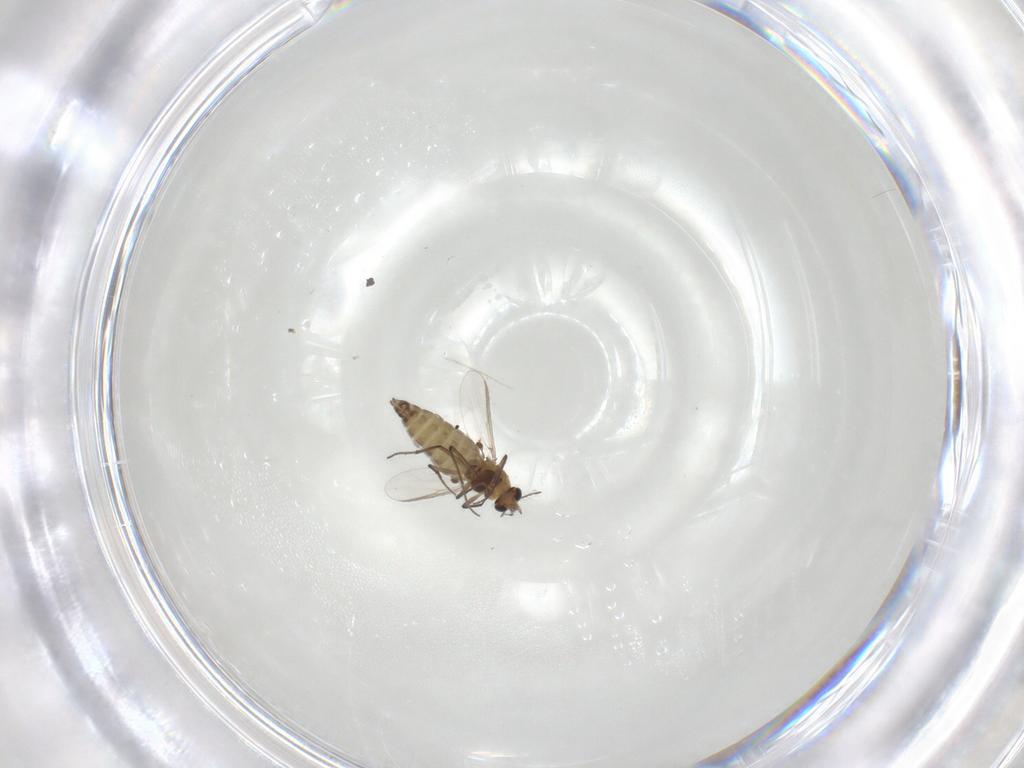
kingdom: Animalia
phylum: Arthropoda
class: Insecta
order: Diptera
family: Chironomidae
